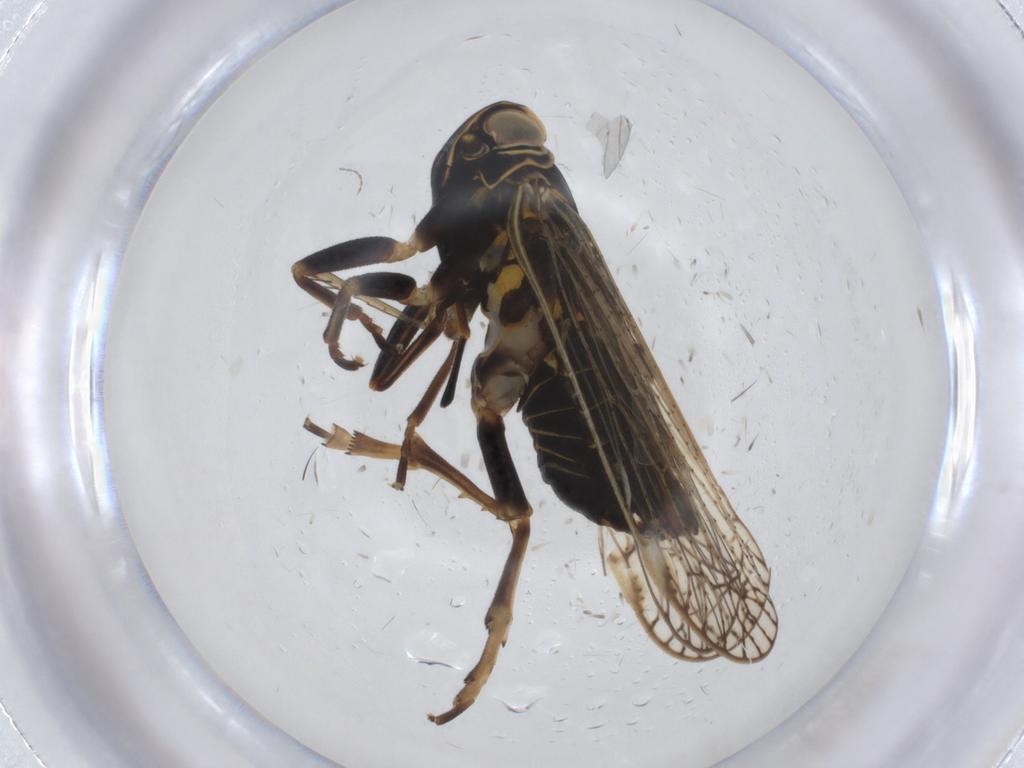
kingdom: Animalia
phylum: Arthropoda
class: Insecta
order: Hemiptera
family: Cixiidae
